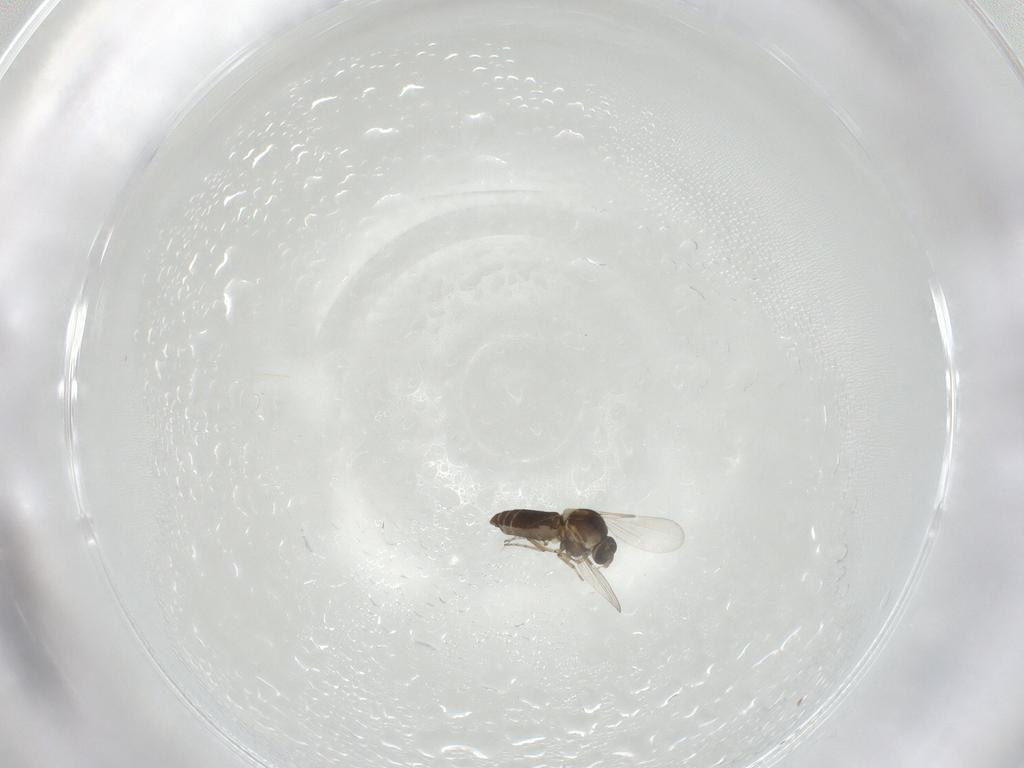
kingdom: Animalia
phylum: Arthropoda
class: Insecta
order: Diptera
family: Ceratopogonidae
